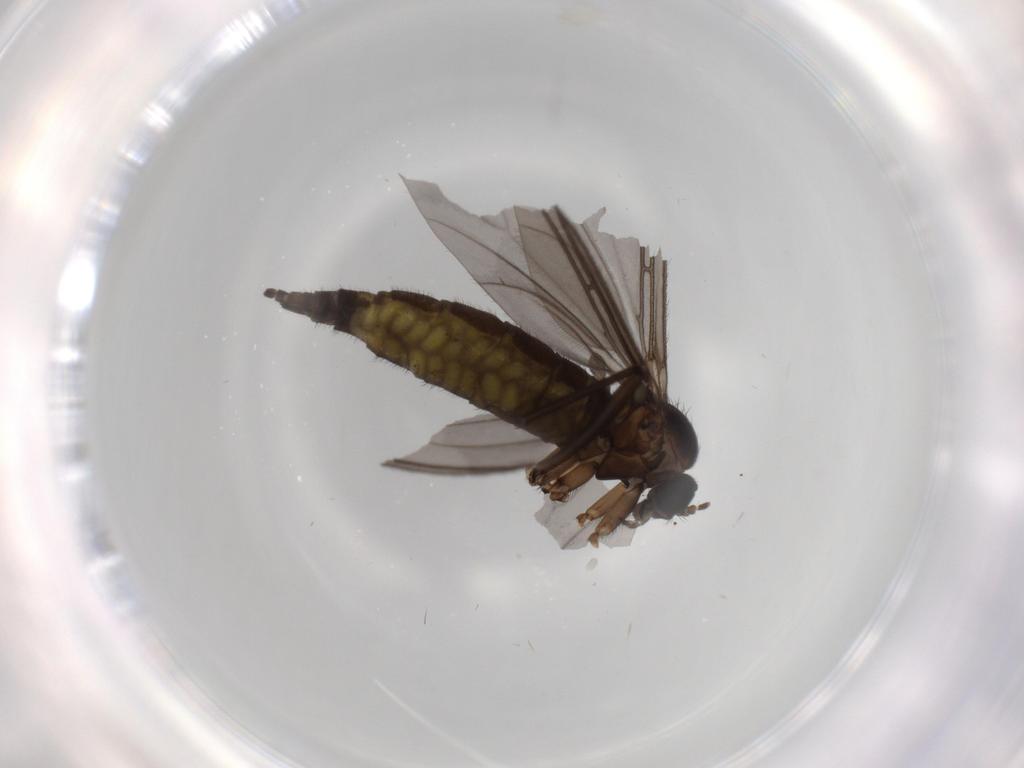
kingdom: Animalia
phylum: Arthropoda
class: Insecta
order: Diptera
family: Sciaridae
